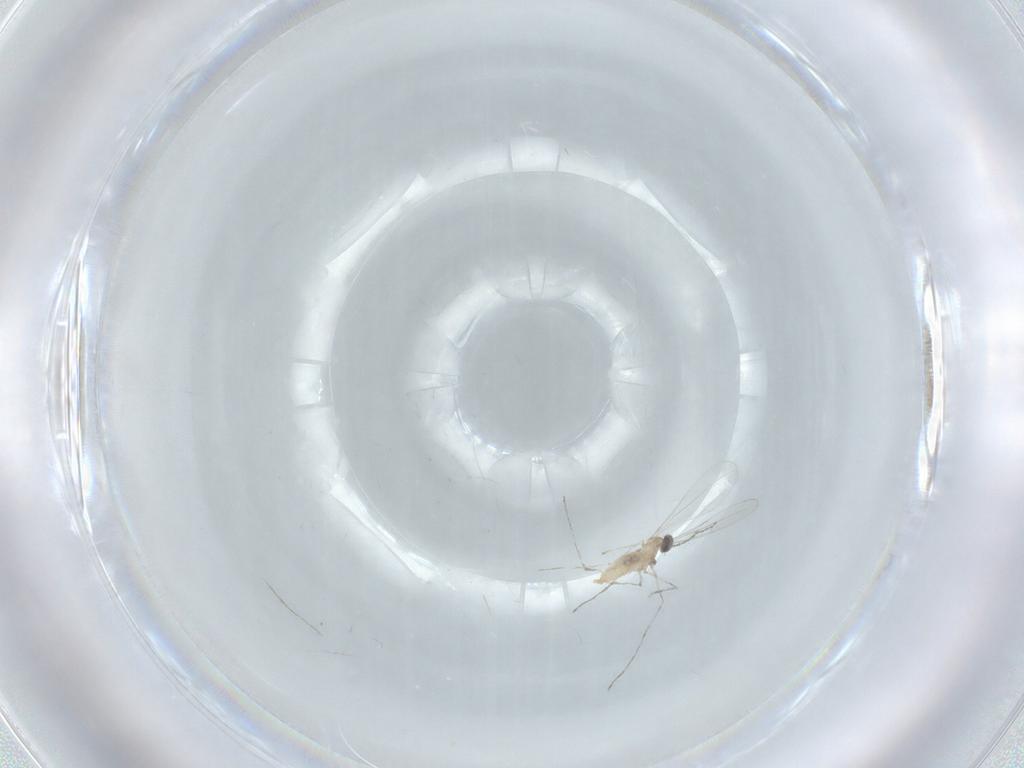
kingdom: Animalia
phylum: Arthropoda
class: Insecta
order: Diptera
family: Cecidomyiidae
